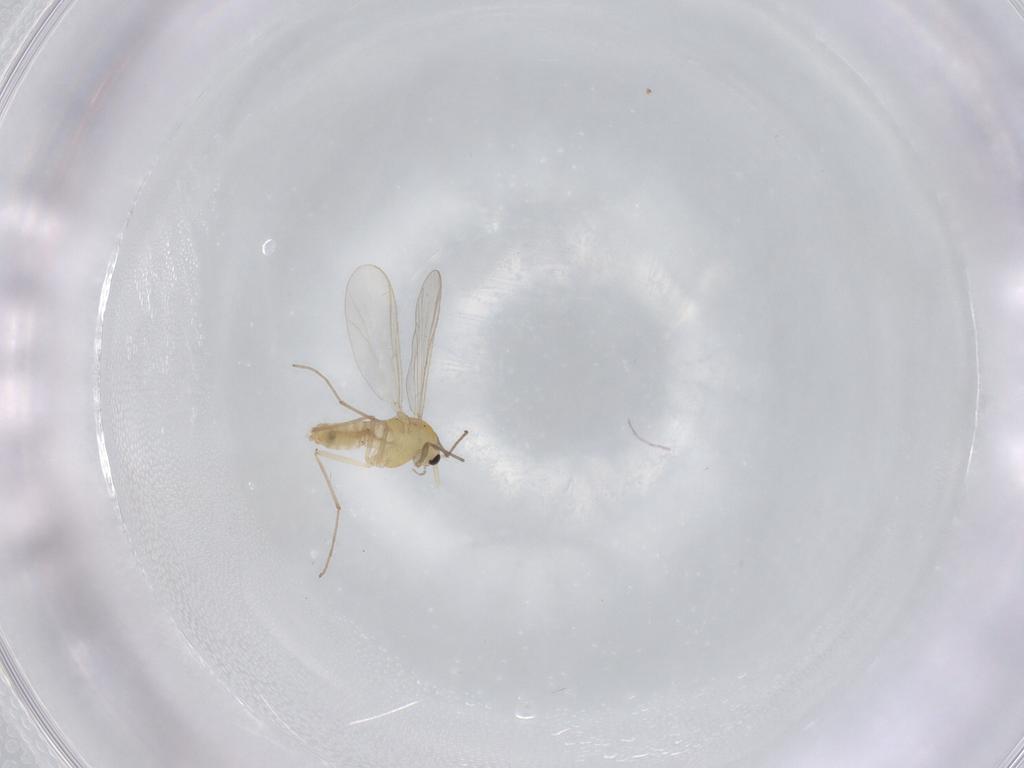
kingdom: Animalia
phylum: Arthropoda
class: Insecta
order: Diptera
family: Chironomidae
